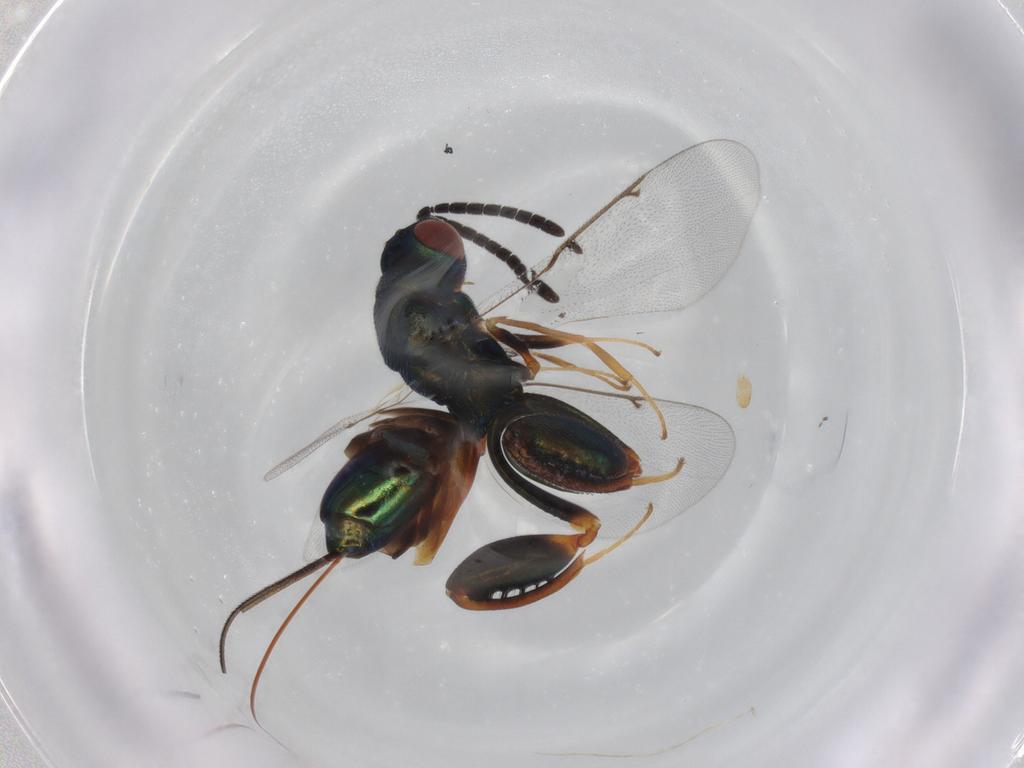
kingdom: Animalia
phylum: Arthropoda
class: Insecta
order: Hymenoptera
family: Torymidae
